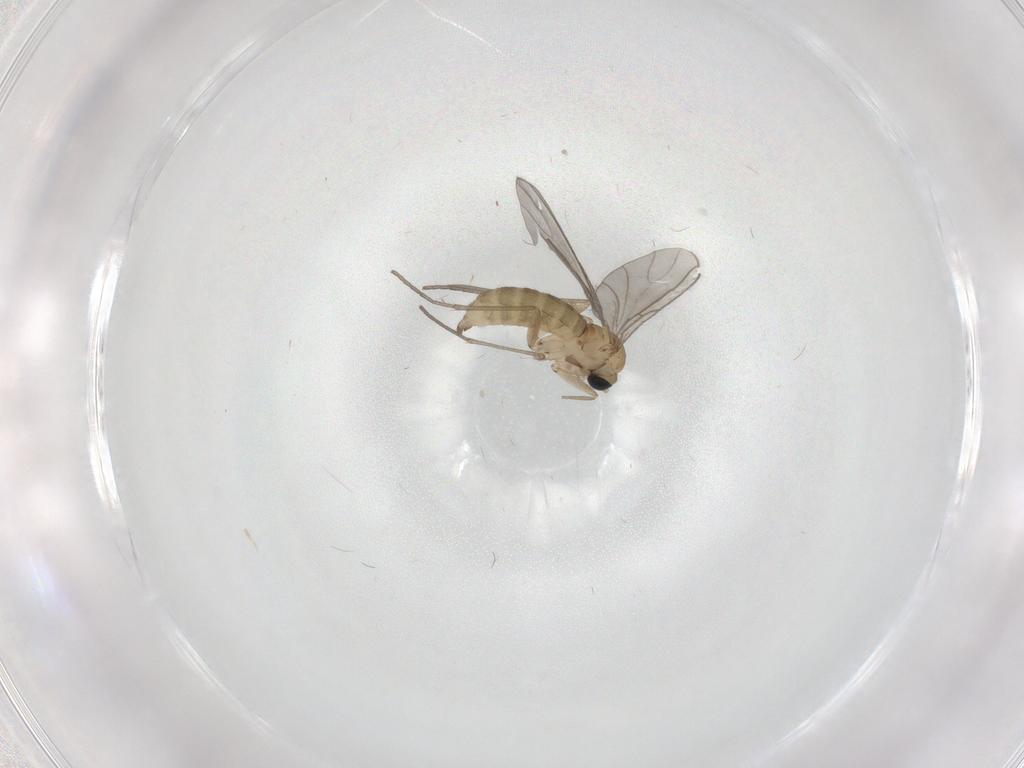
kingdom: Animalia
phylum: Arthropoda
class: Insecta
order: Diptera
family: Sciaridae
